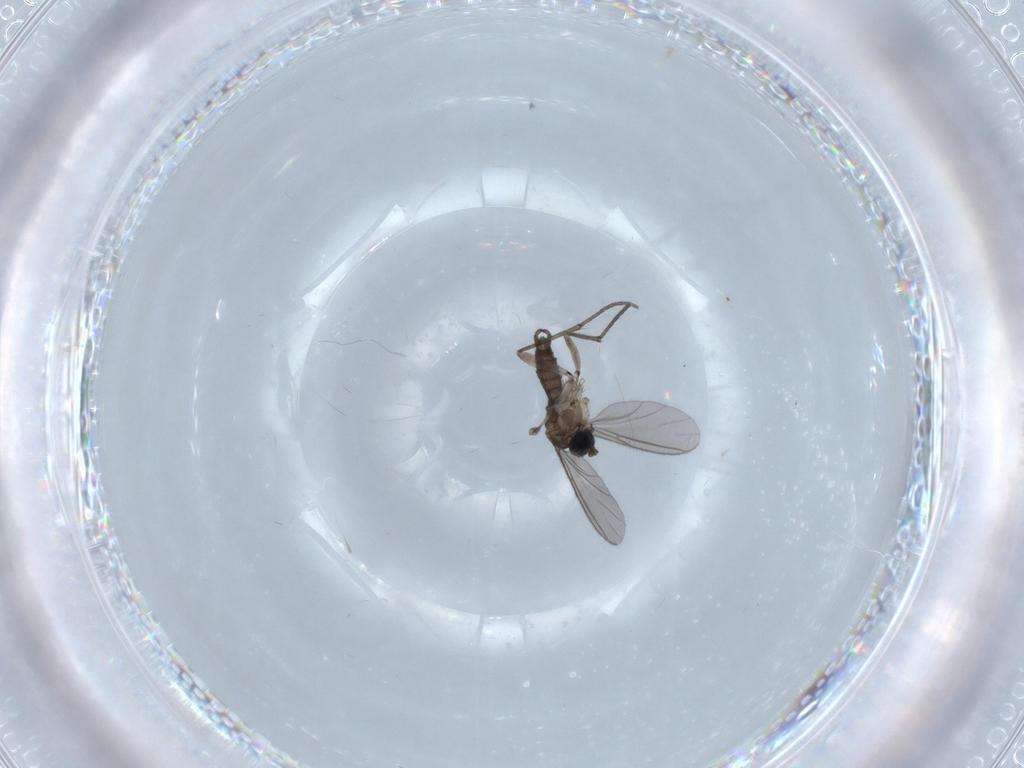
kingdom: Animalia
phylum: Arthropoda
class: Insecta
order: Diptera
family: Sciaridae
